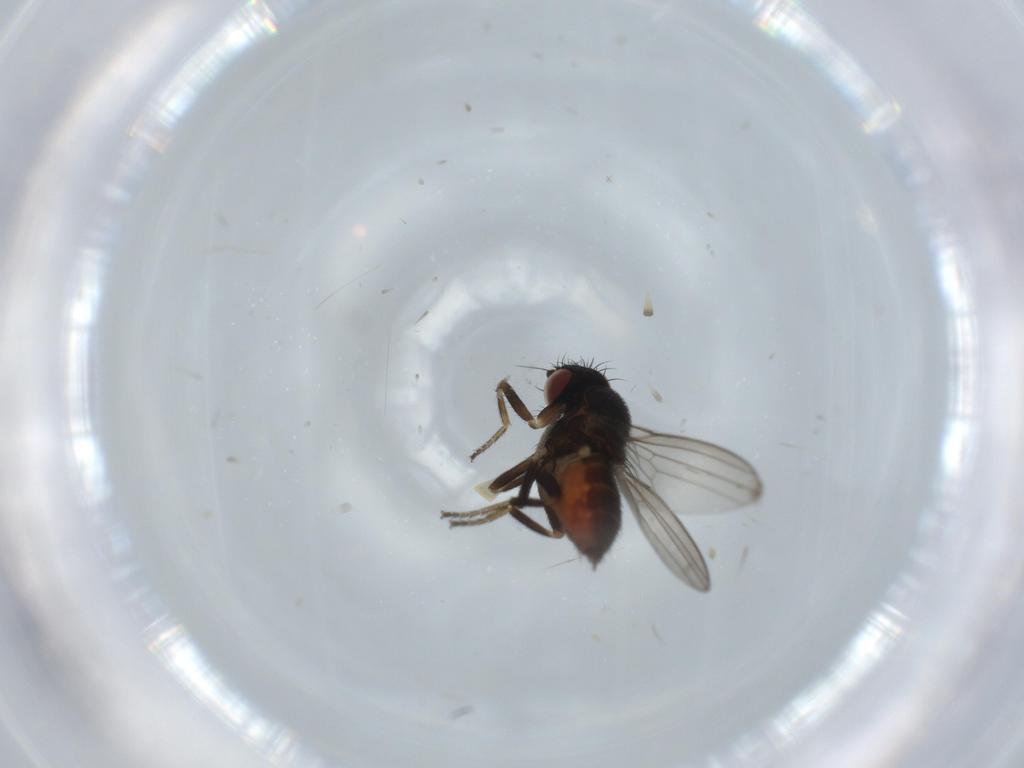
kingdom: Animalia
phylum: Arthropoda
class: Insecta
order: Diptera
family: Milichiidae
